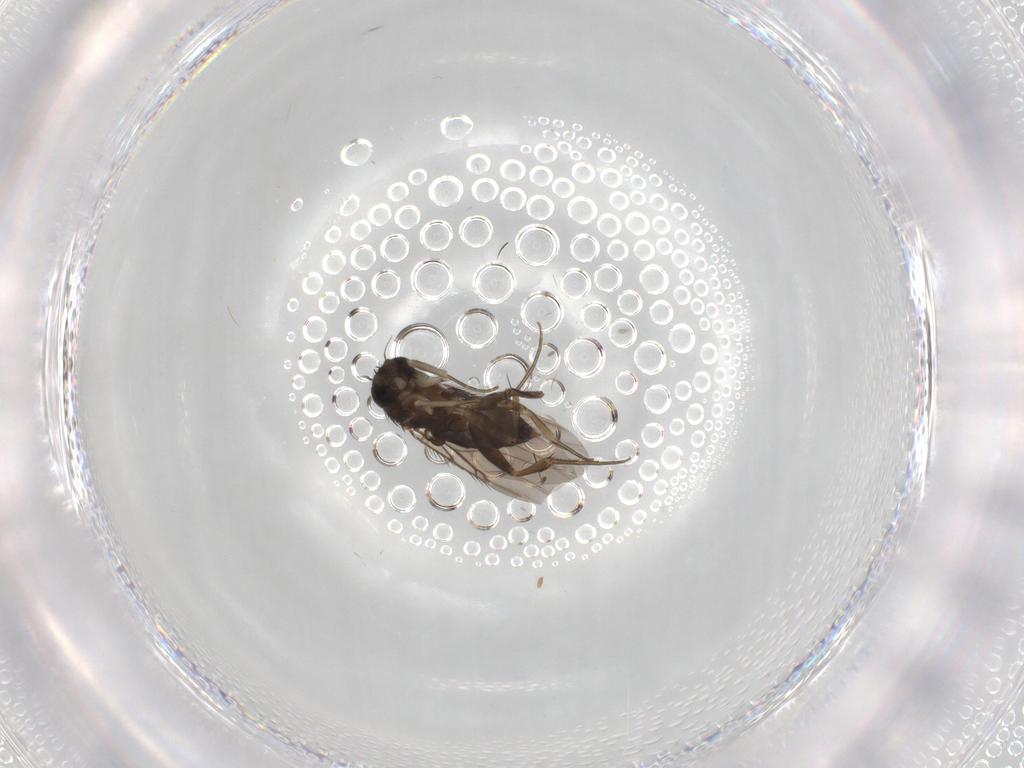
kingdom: Animalia
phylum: Arthropoda
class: Insecta
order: Diptera
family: Phoridae
